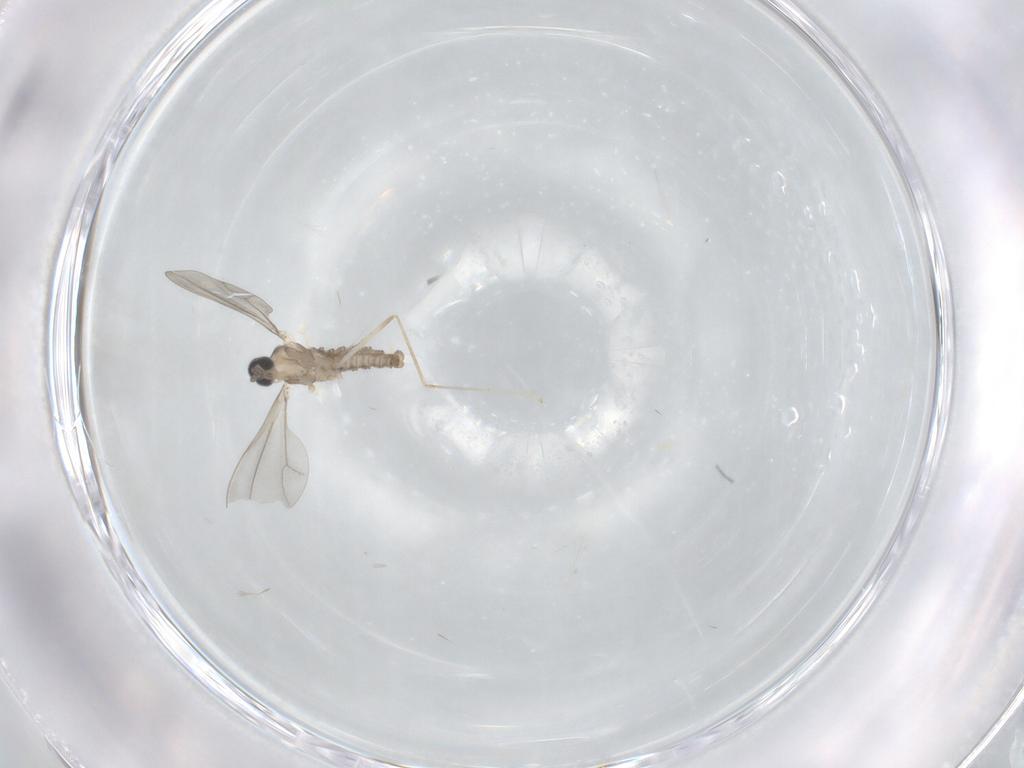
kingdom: Animalia
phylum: Arthropoda
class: Insecta
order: Diptera
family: Cecidomyiidae
